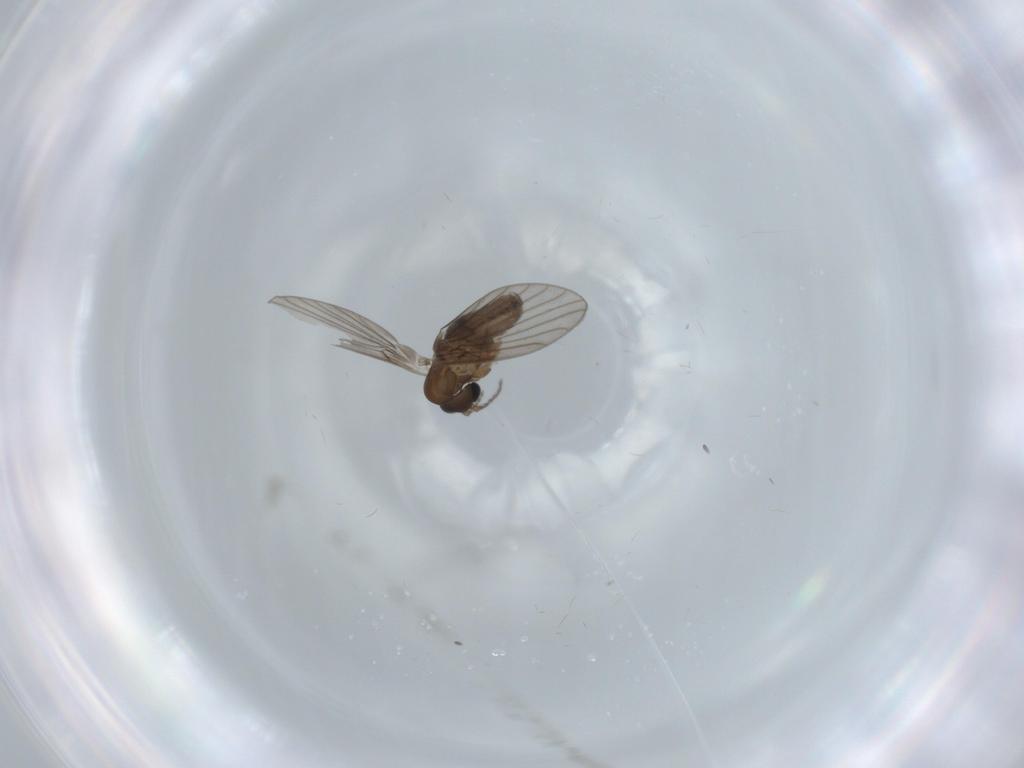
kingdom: Animalia
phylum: Arthropoda
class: Insecta
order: Diptera
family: Psychodidae
